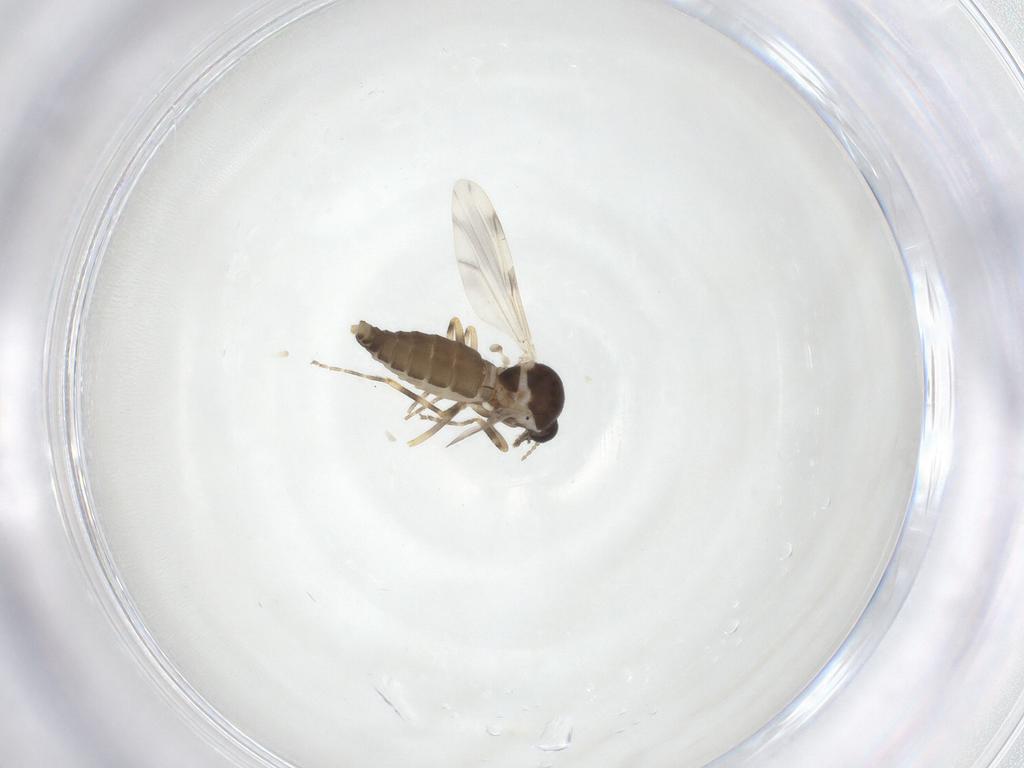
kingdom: Animalia
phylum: Arthropoda
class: Insecta
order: Diptera
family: Ceratopogonidae
